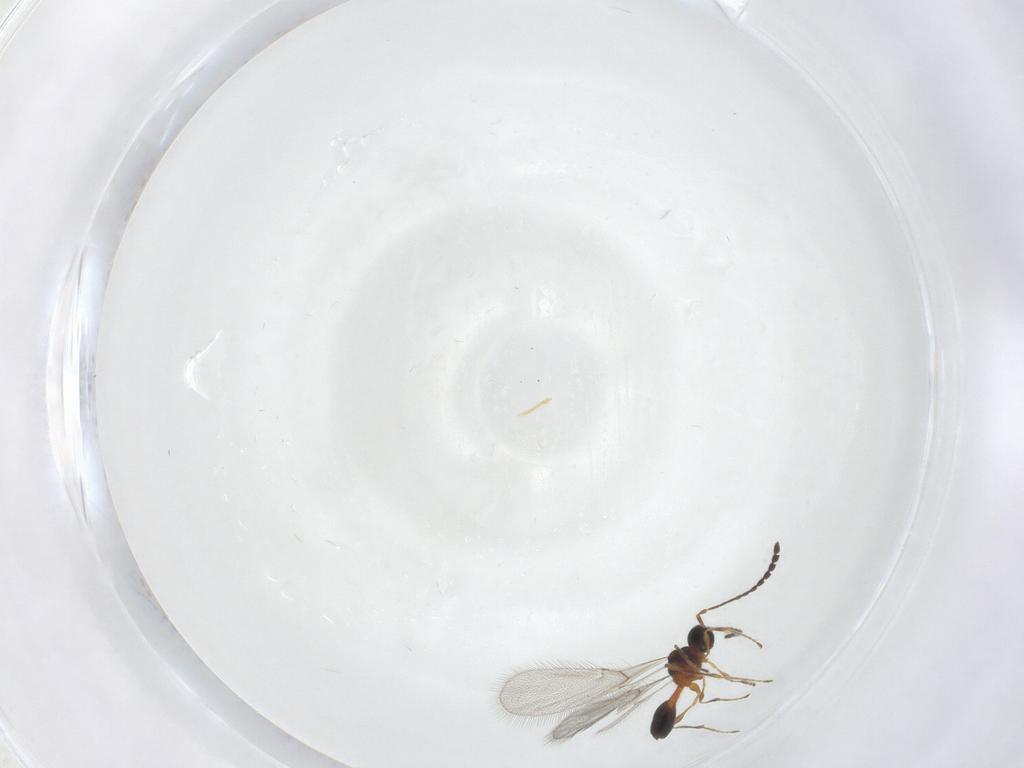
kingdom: Animalia
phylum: Arthropoda
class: Insecta
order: Hymenoptera
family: Diapriidae
